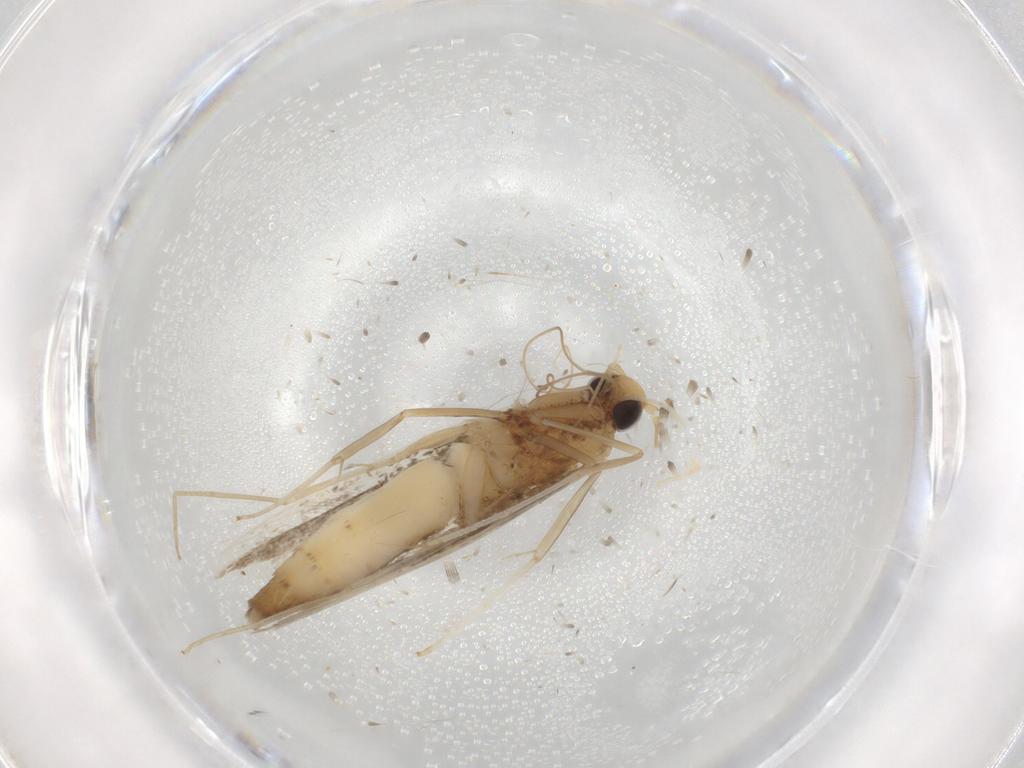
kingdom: Animalia
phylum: Arthropoda
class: Insecta
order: Lepidoptera
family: Gracillariidae
